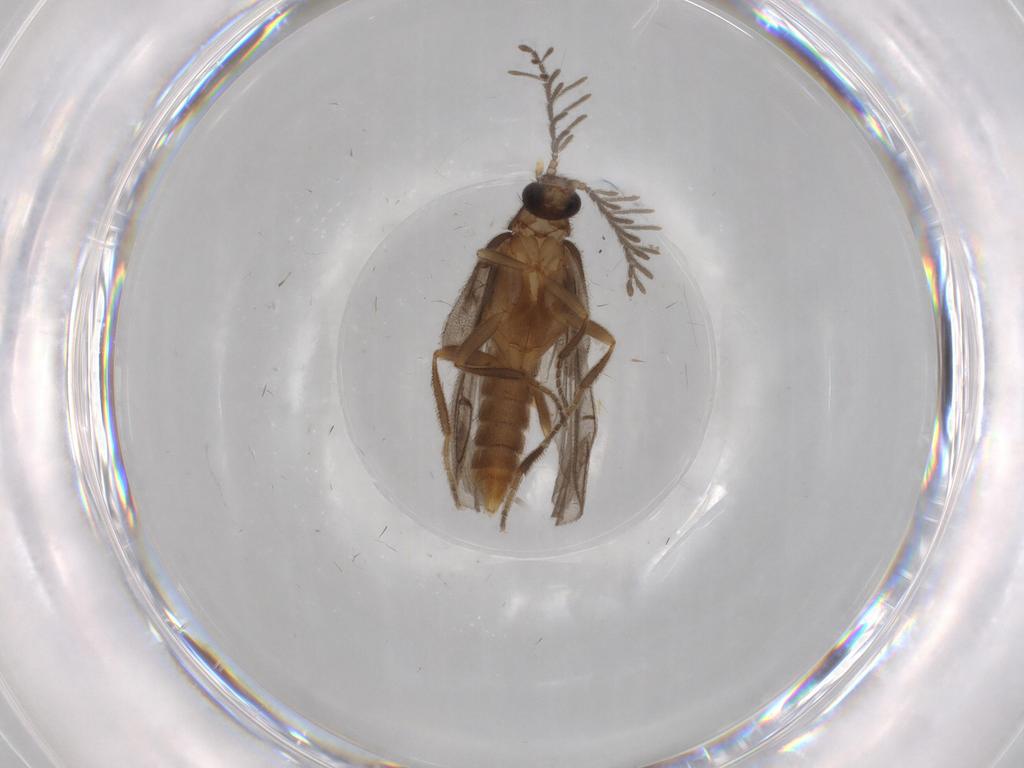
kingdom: Animalia
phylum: Arthropoda
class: Insecta
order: Coleoptera
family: Elateridae
